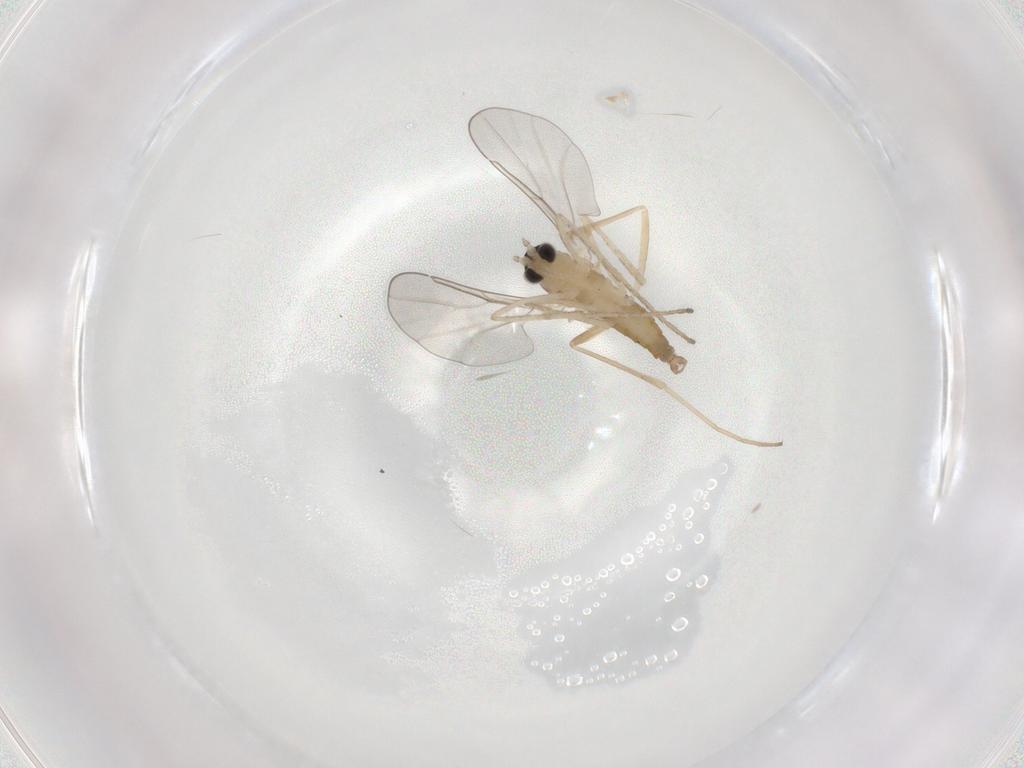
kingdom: Animalia
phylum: Arthropoda
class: Insecta
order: Diptera
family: Cecidomyiidae
